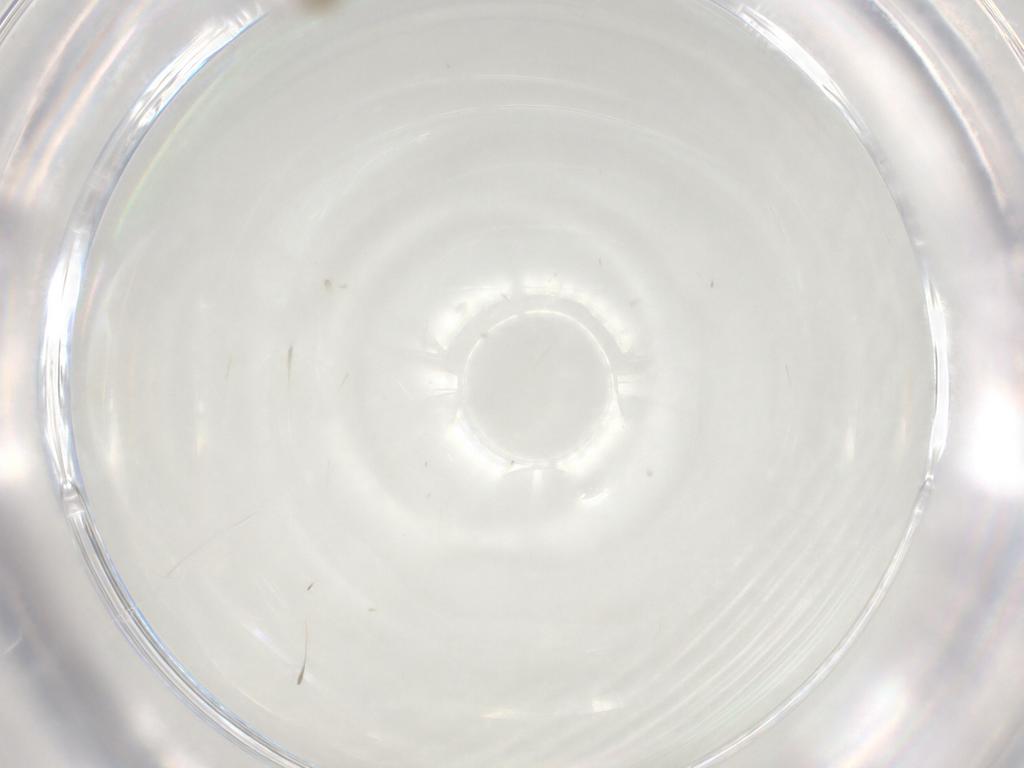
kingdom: Animalia
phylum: Arthropoda
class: Insecta
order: Diptera
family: Cecidomyiidae
